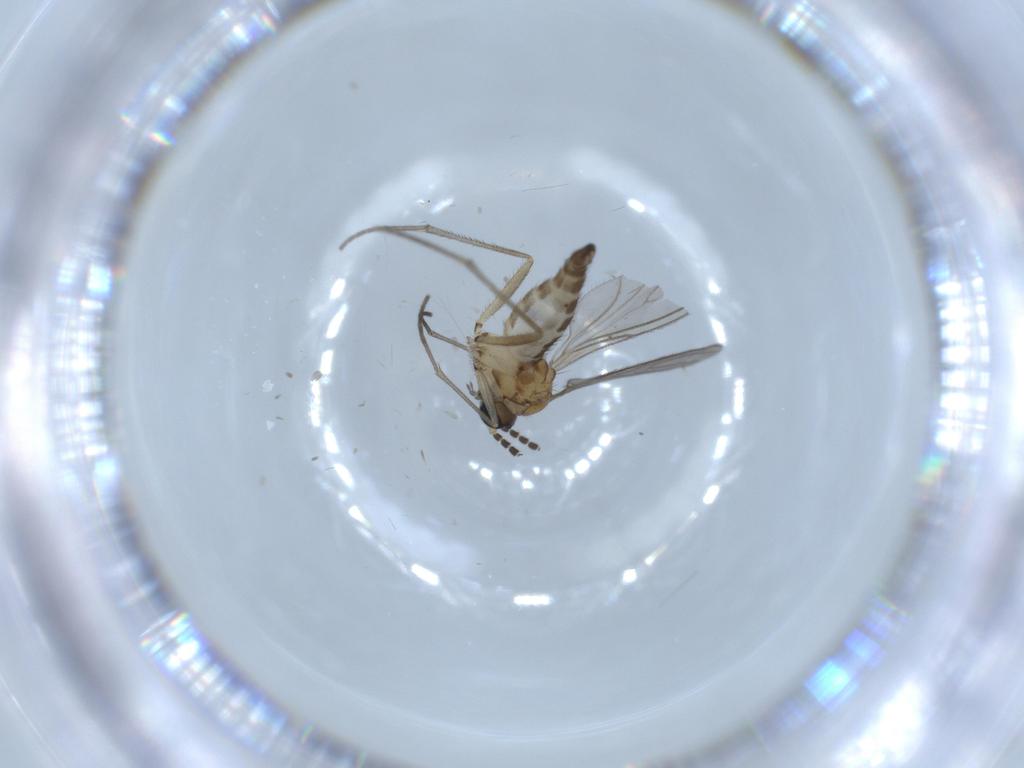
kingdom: Animalia
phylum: Arthropoda
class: Insecta
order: Diptera
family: Sciaridae
